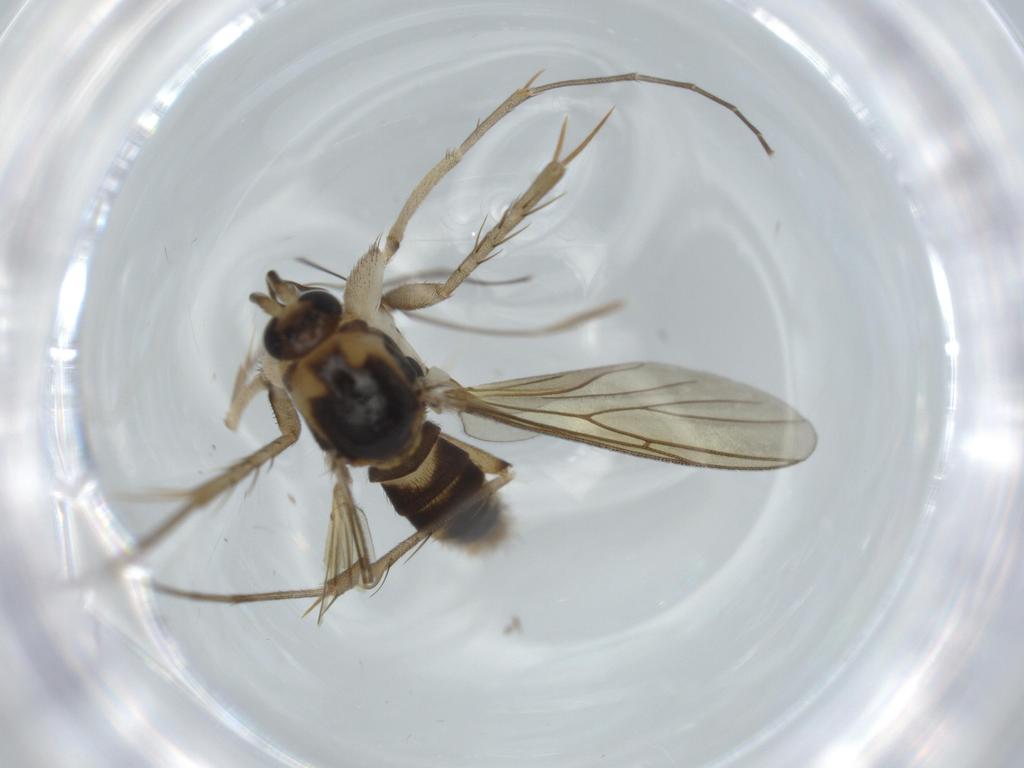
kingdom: Animalia
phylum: Arthropoda
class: Insecta
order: Diptera
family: Mycetophilidae
